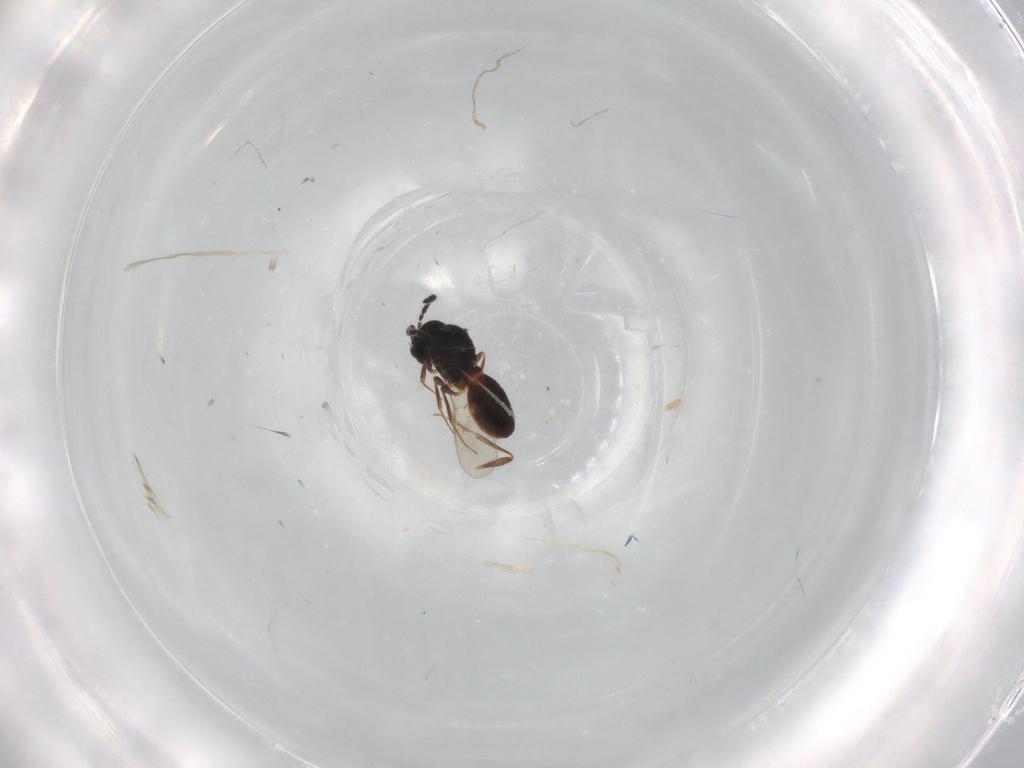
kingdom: Animalia
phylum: Arthropoda
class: Insecta
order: Hymenoptera
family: Scelionidae
